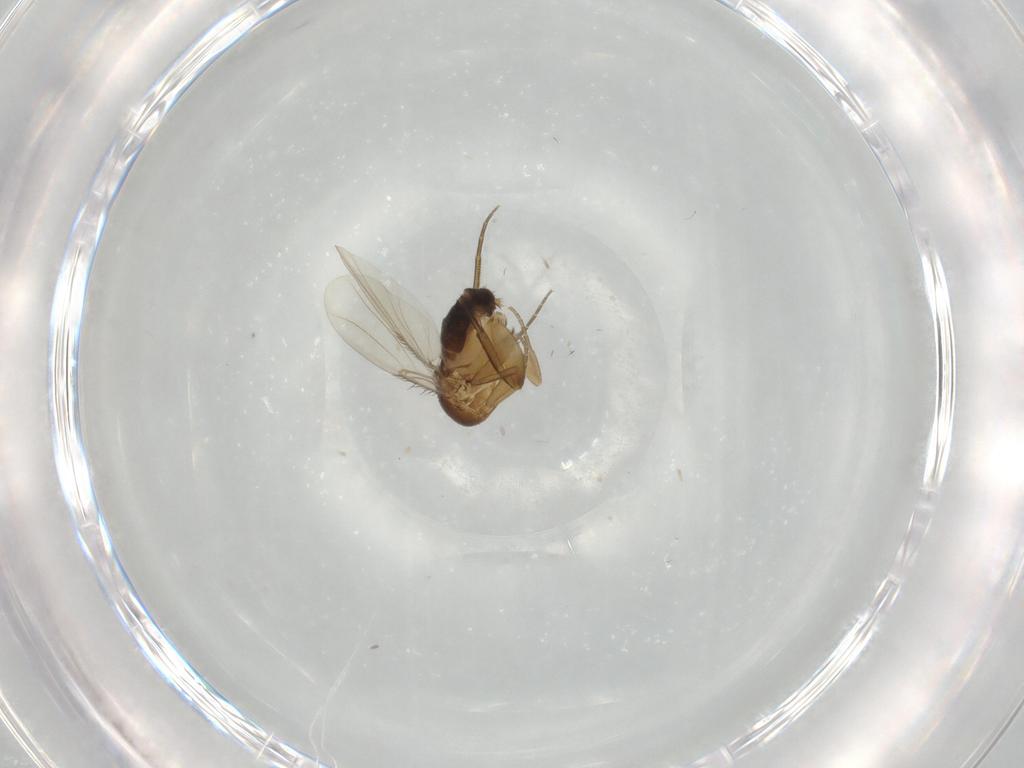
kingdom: Animalia
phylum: Arthropoda
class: Insecta
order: Diptera
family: Phoridae
